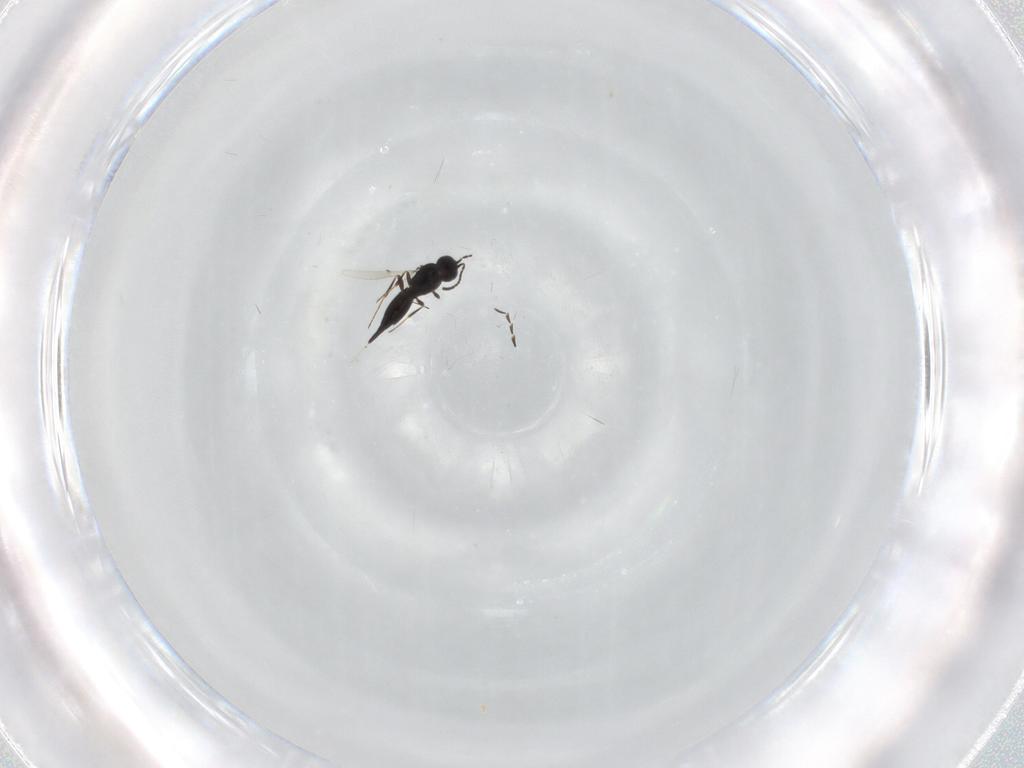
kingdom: Animalia
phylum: Arthropoda
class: Insecta
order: Hymenoptera
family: Scelionidae
